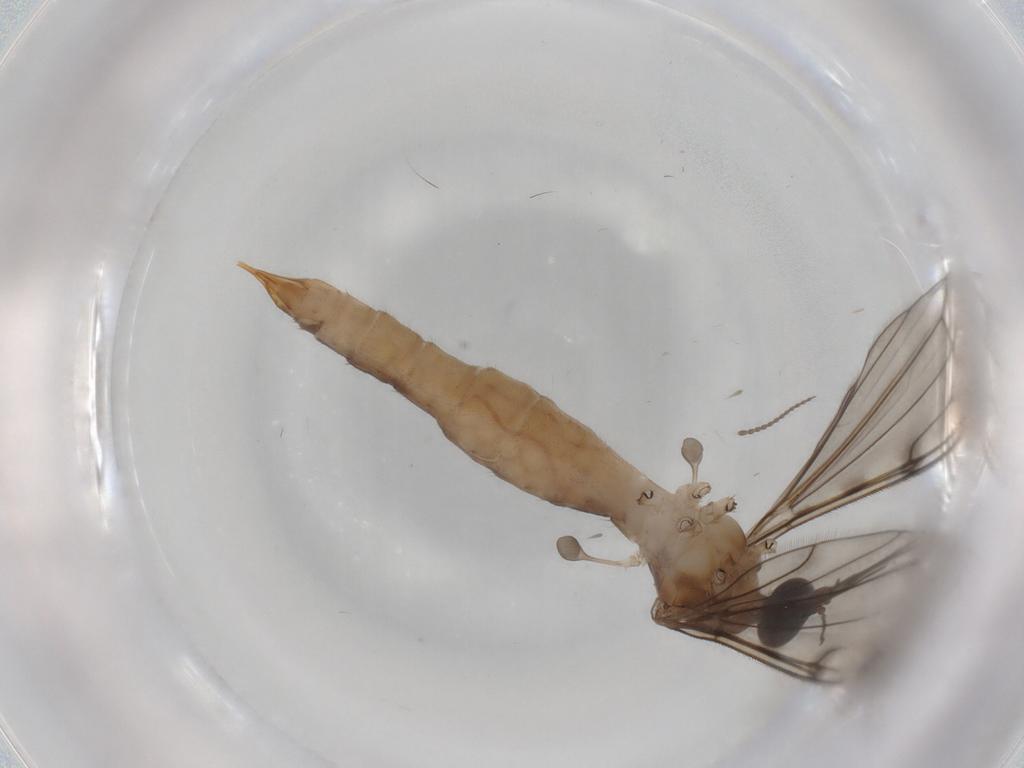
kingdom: Animalia
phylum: Arthropoda
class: Insecta
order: Diptera
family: Limoniidae
